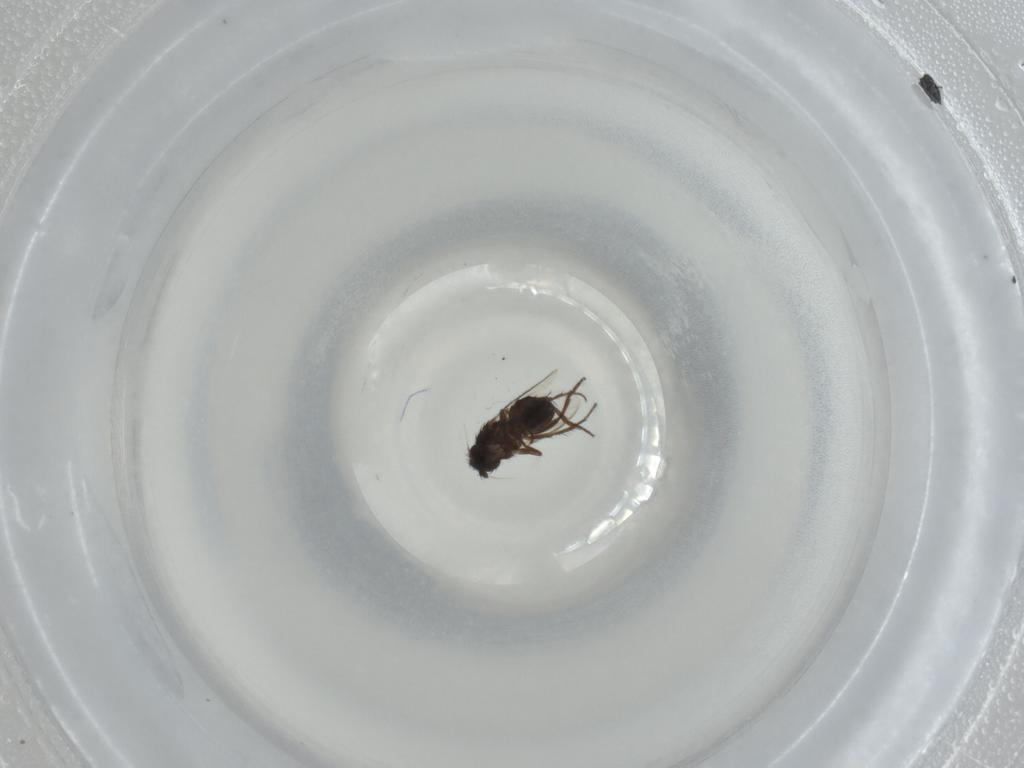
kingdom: Animalia
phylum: Arthropoda
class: Insecta
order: Diptera
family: Sphaeroceridae
